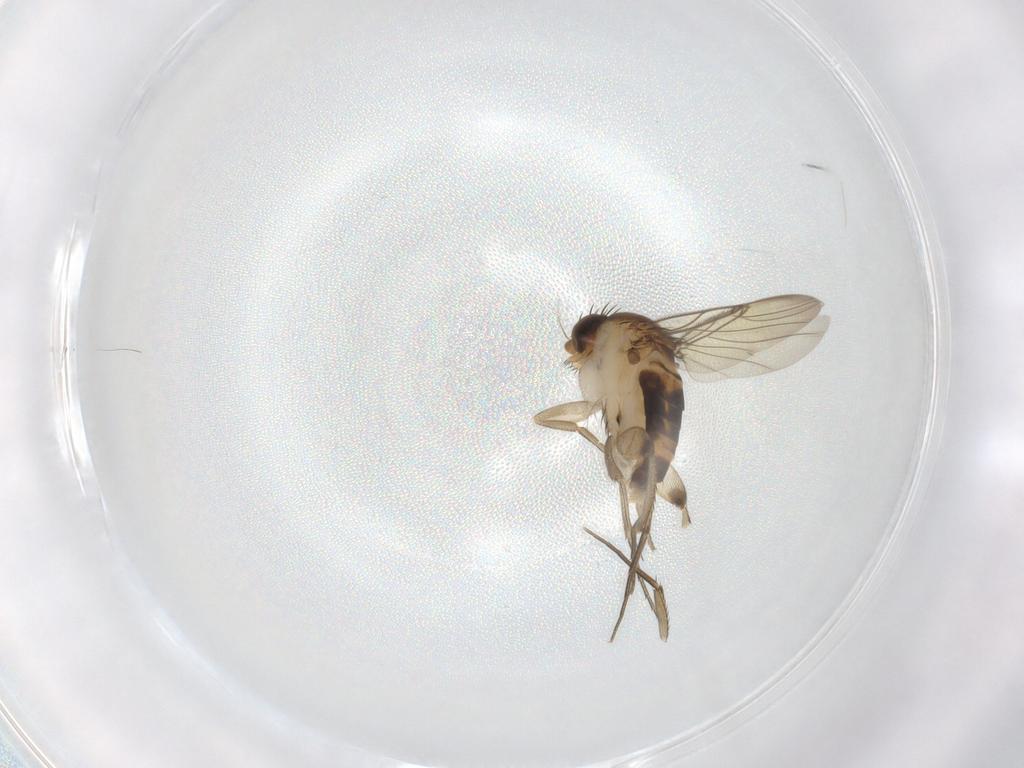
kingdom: Animalia
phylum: Arthropoda
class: Insecta
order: Diptera
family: Phoridae
